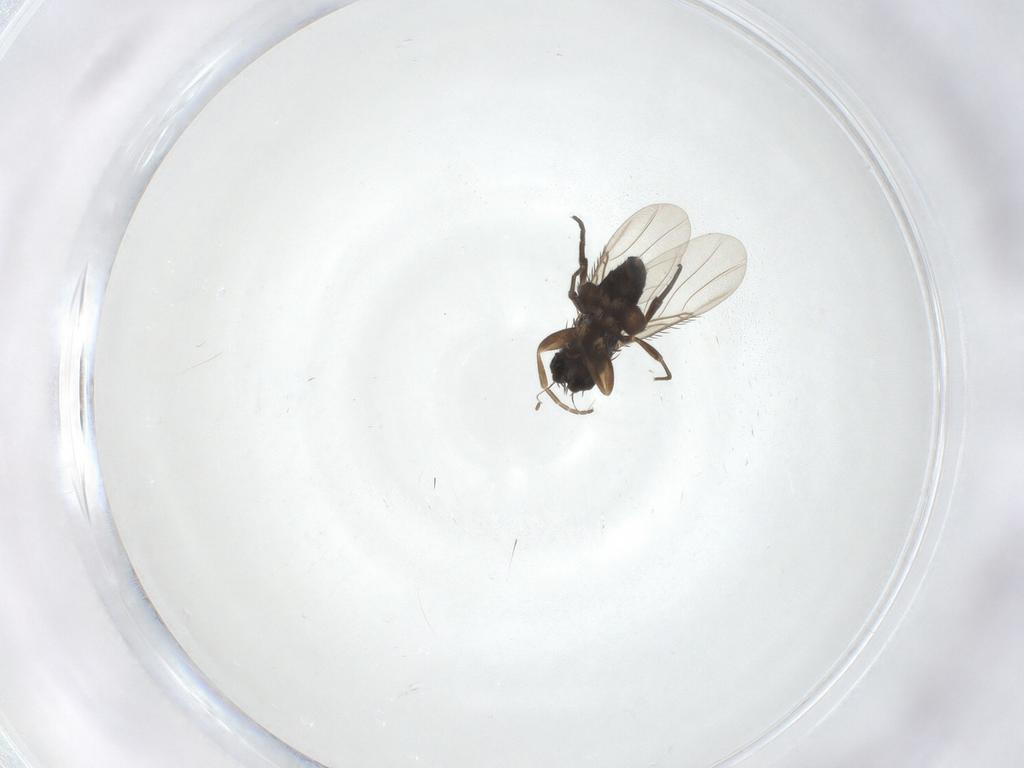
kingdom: Animalia
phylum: Arthropoda
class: Insecta
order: Diptera
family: Phoridae
